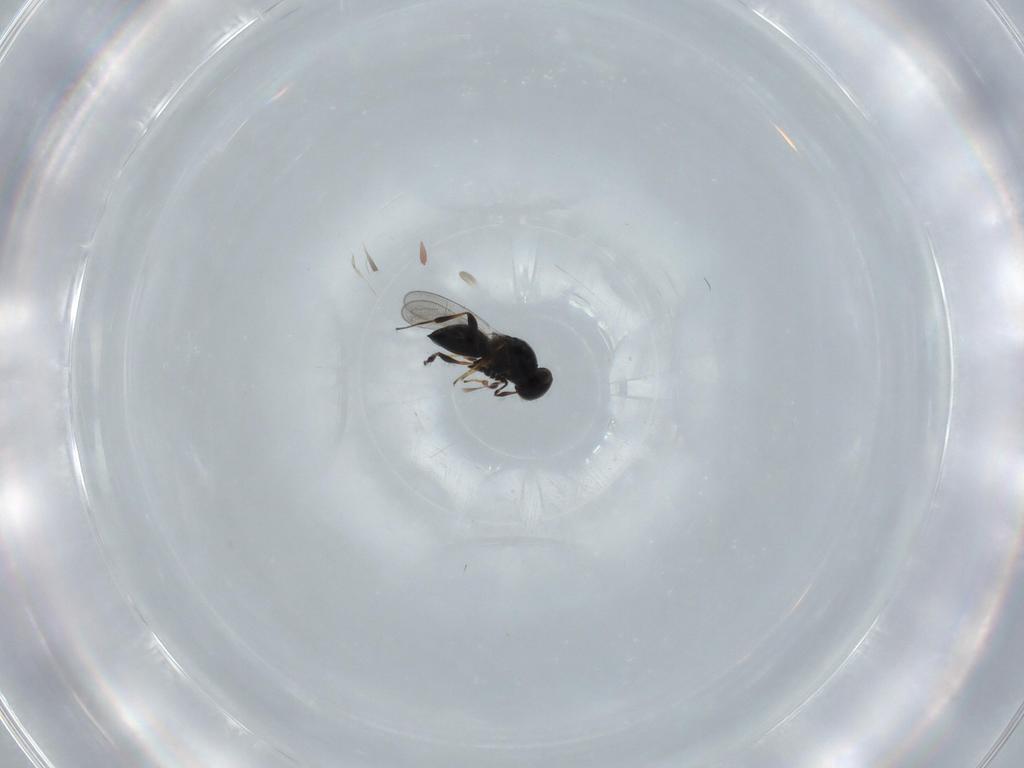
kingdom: Animalia
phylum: Arthropoda
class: Insecta
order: Hymenoptera
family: Platygastridae
